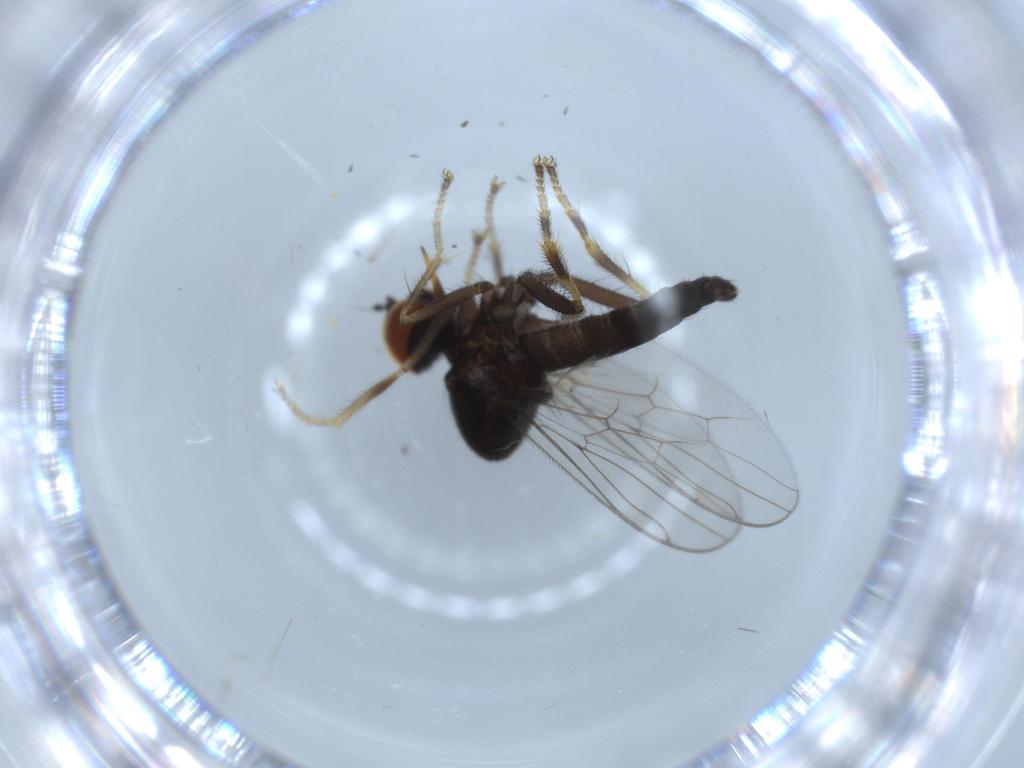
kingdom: Animalia
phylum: Arthropoda
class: Insecta
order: Diptera
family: Hybotidae
